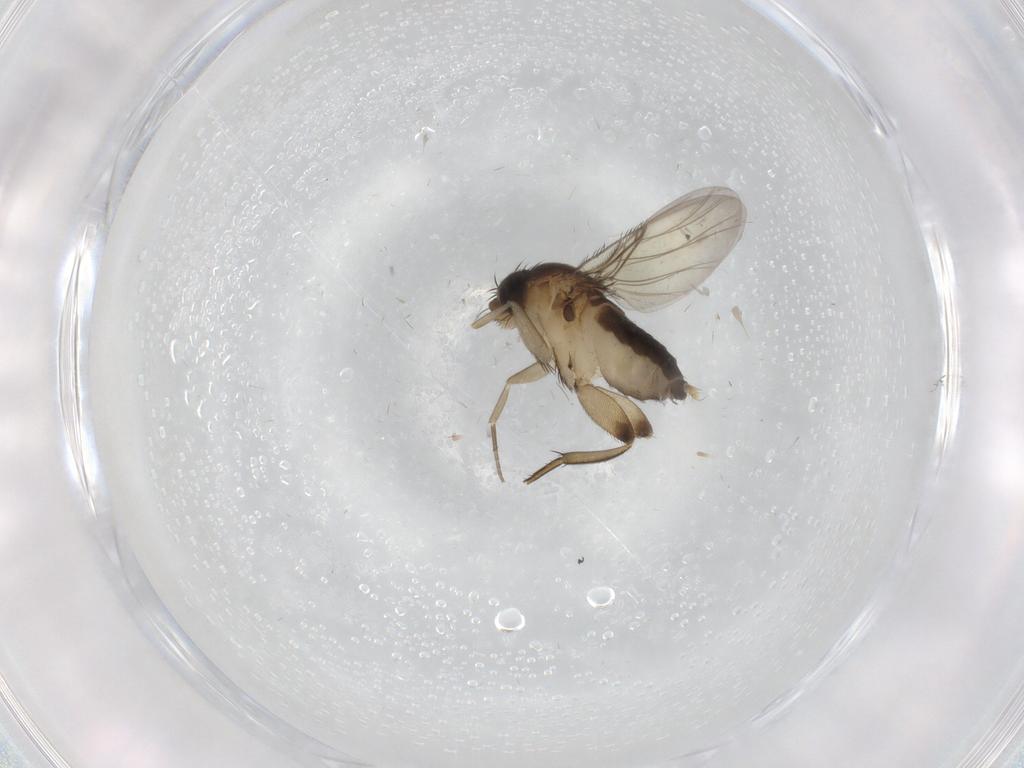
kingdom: Animalia
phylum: Arthropoda
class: Insecta
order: Diptera
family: Phoridae
